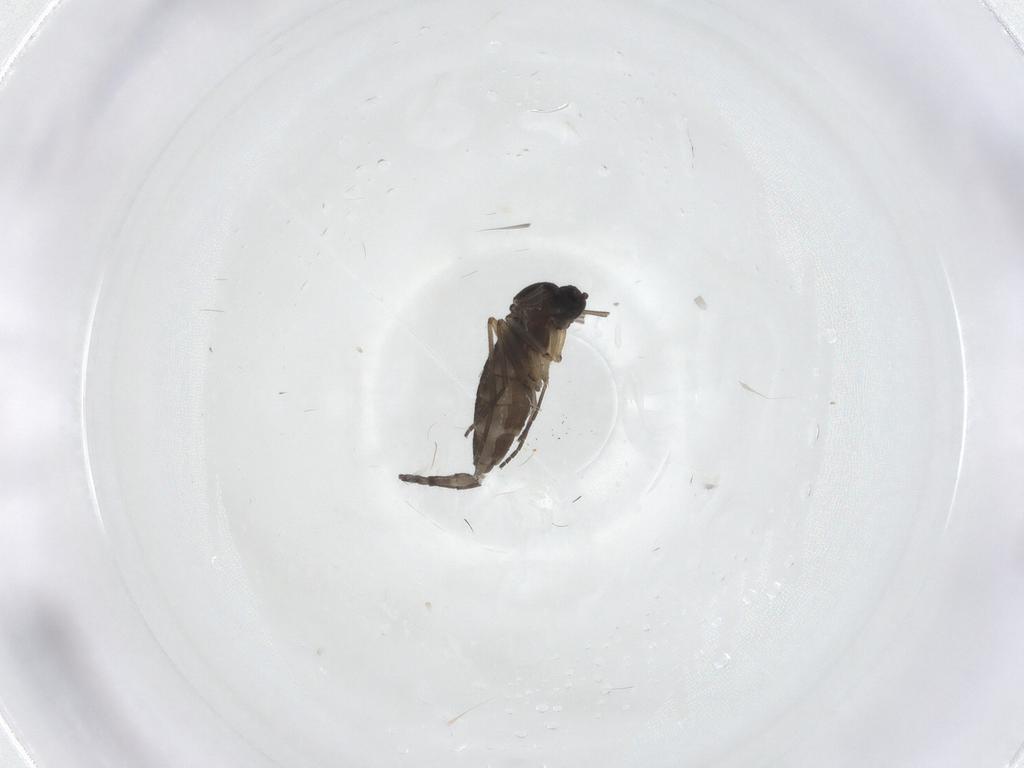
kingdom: Animalia
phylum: Arthropoda
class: Insecta
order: Diptera
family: Sciaridae
